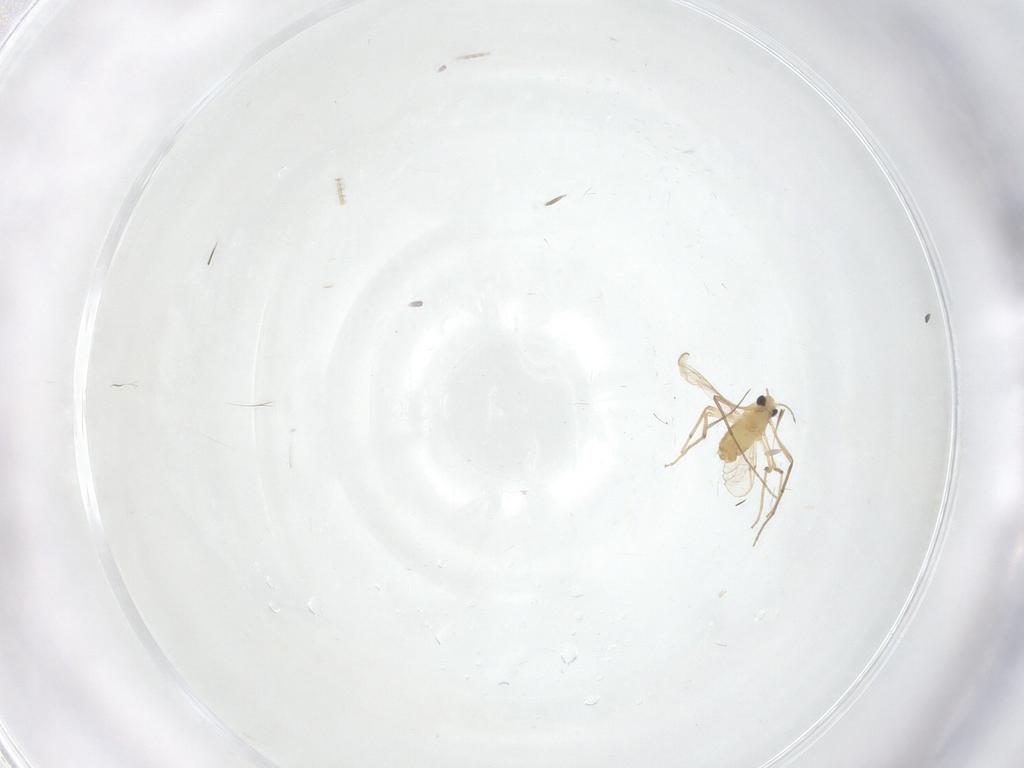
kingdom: Animalia
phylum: Arthropoda
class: Insecta
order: Diptera
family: Chironomidae
